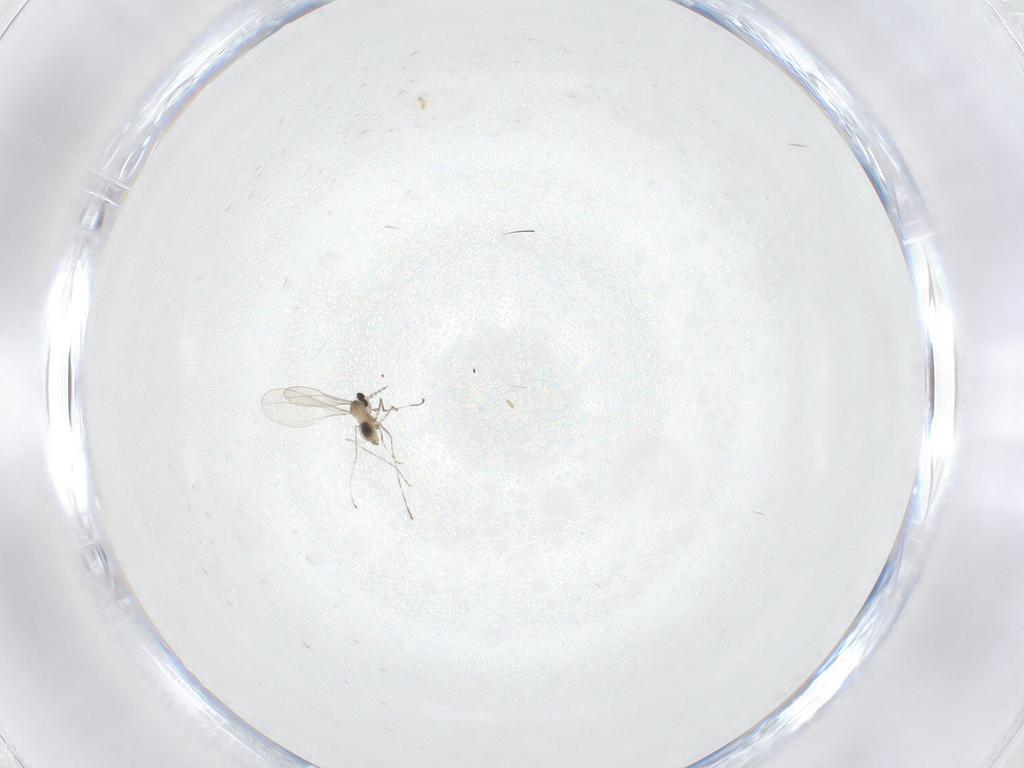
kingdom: Animalia
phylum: Arthropoda
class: Insecta
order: Diptera
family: Cecidomyiidae
